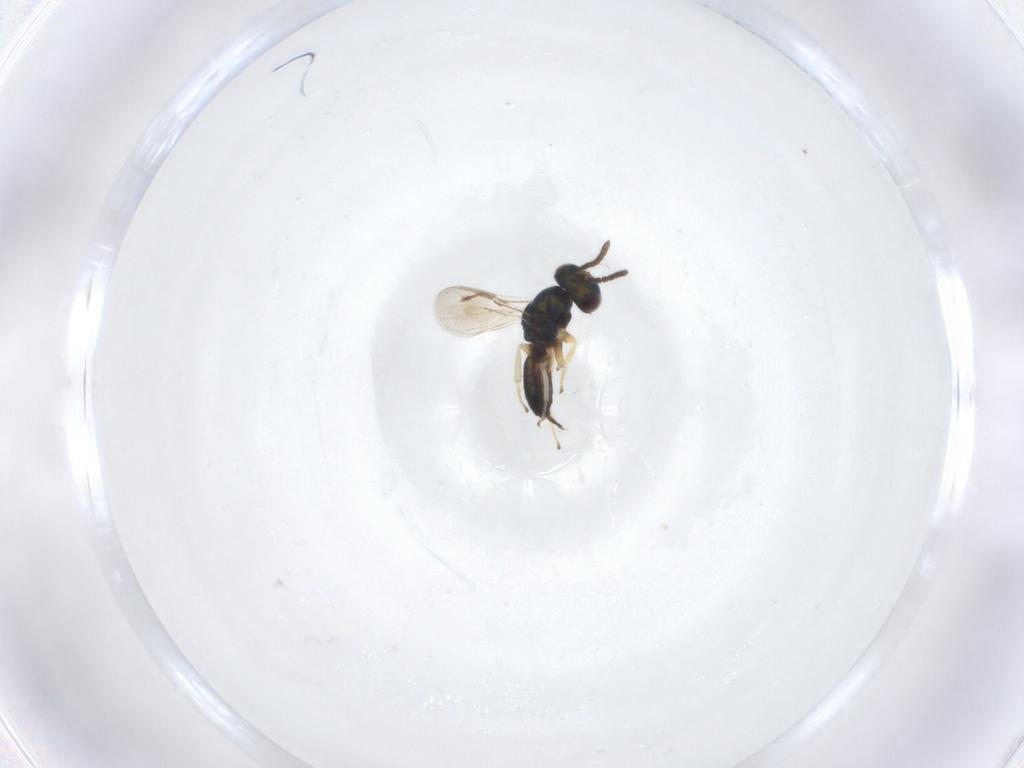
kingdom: Animalia
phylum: Arthropoda
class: Insecta
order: Hymenoptera
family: Pteromalidae
